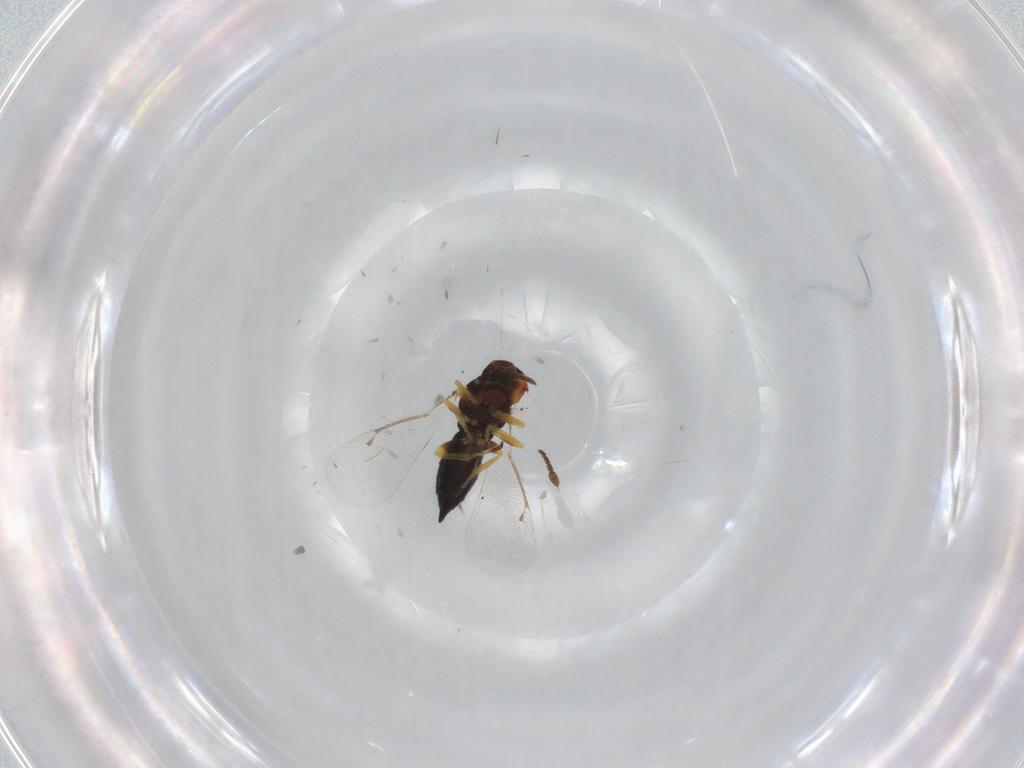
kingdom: Animalia
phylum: Arthropoda
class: Insecta
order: Hymenoptera
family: Eulophidae
